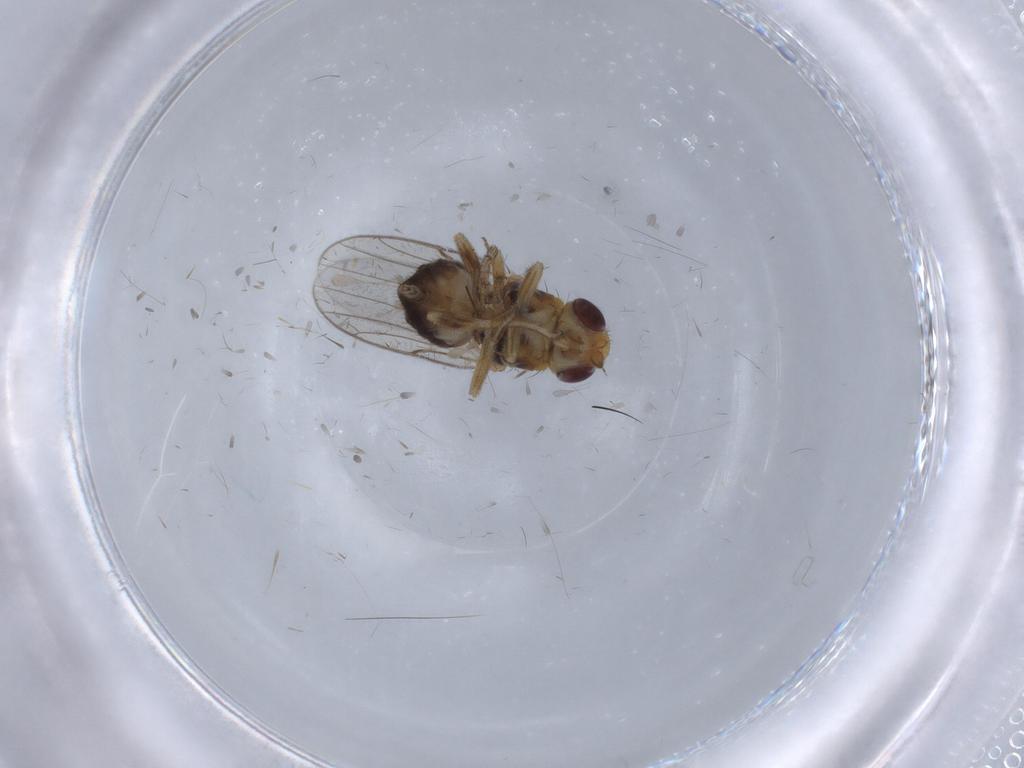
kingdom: Animalia
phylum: Arthropoda
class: Insecta
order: Diptera
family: Chloropidae
